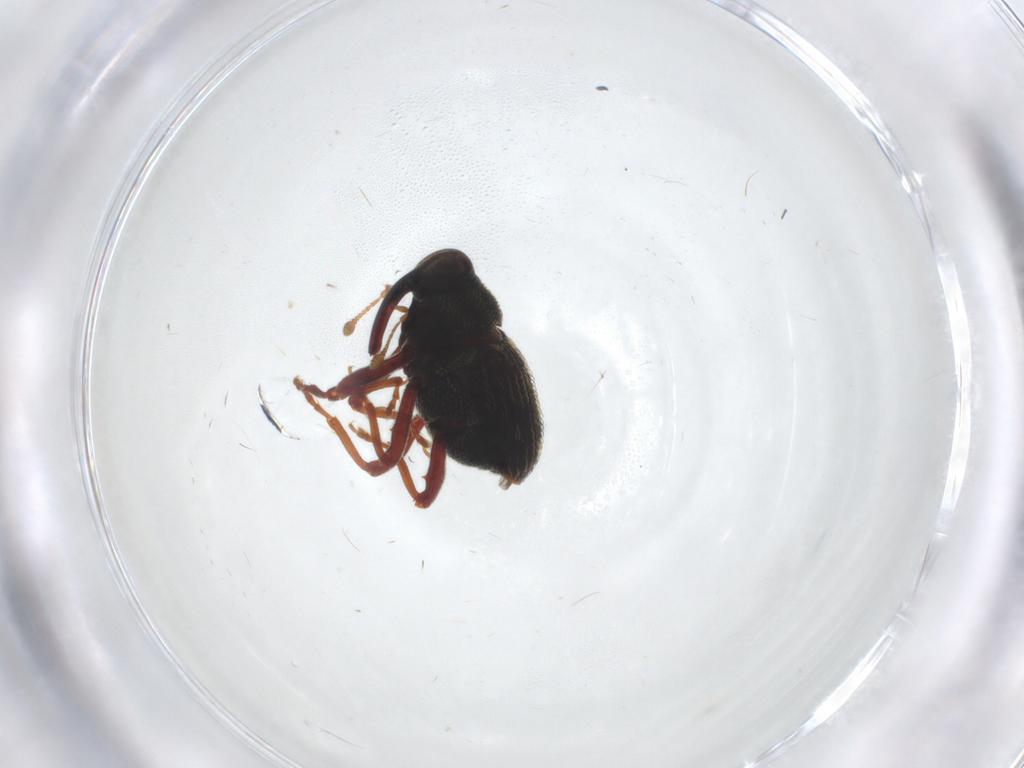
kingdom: Animalia
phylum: Arthropoda
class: Insecta
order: Coleoptera
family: Curculionidae
